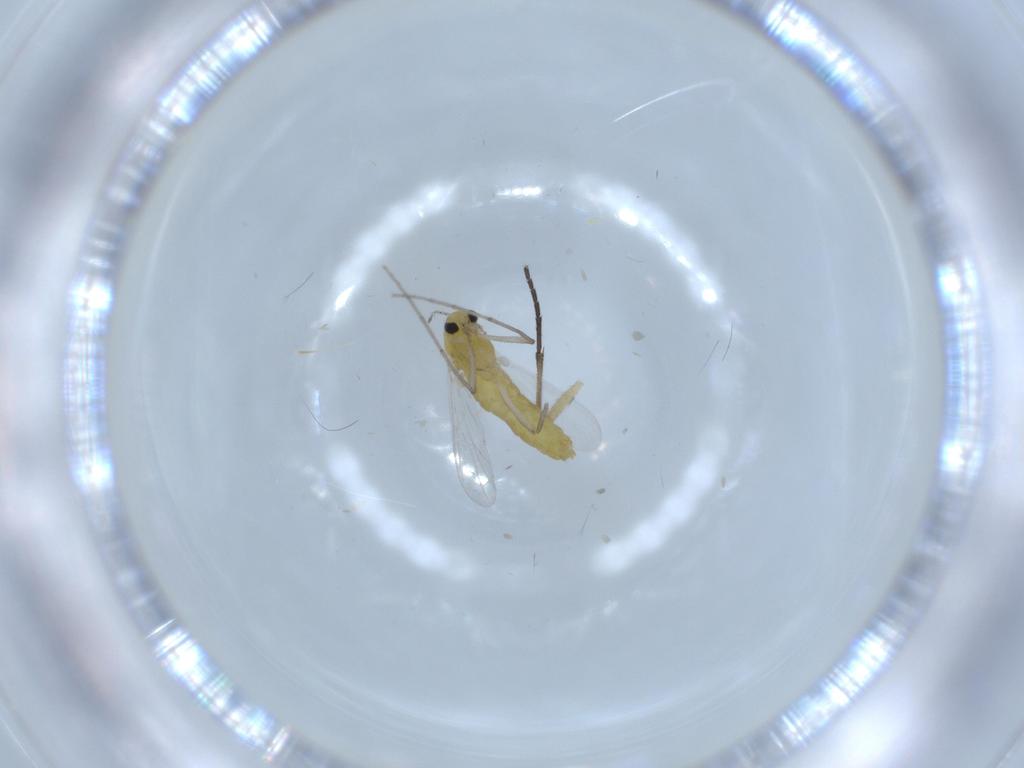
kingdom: Animalia
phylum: Arthropoda
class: Insecta
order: Diptera
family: Chironomidae
